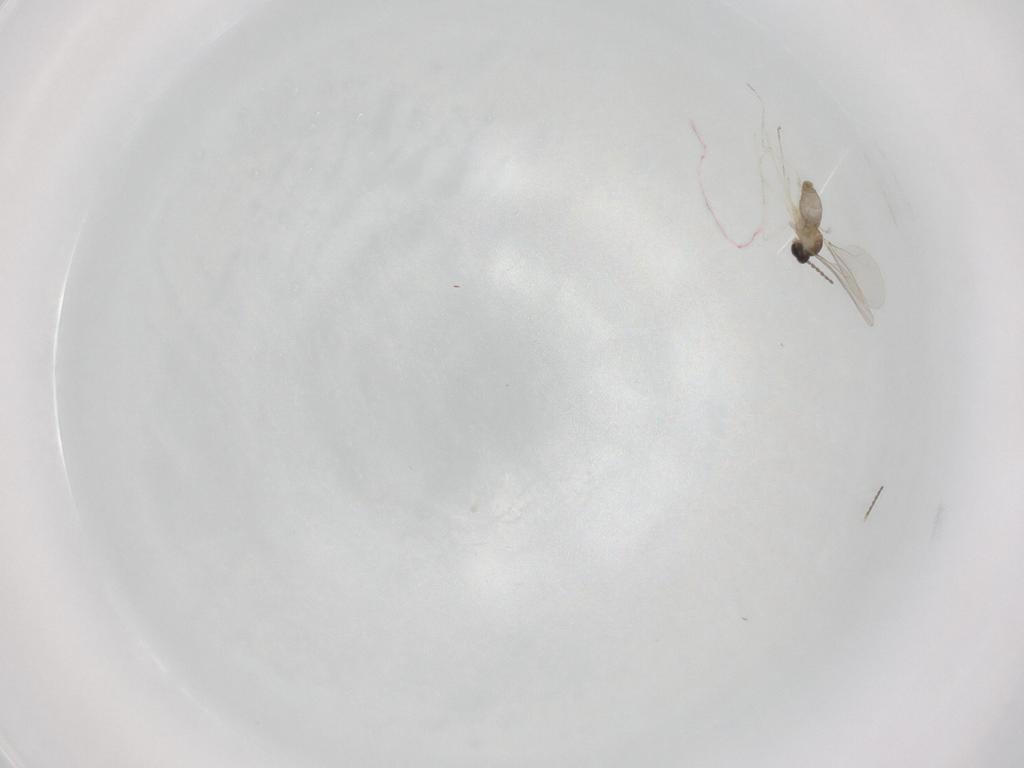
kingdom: Animalia
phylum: Arthropoda
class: Insecta
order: Diptera
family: Cecidomyiidae
